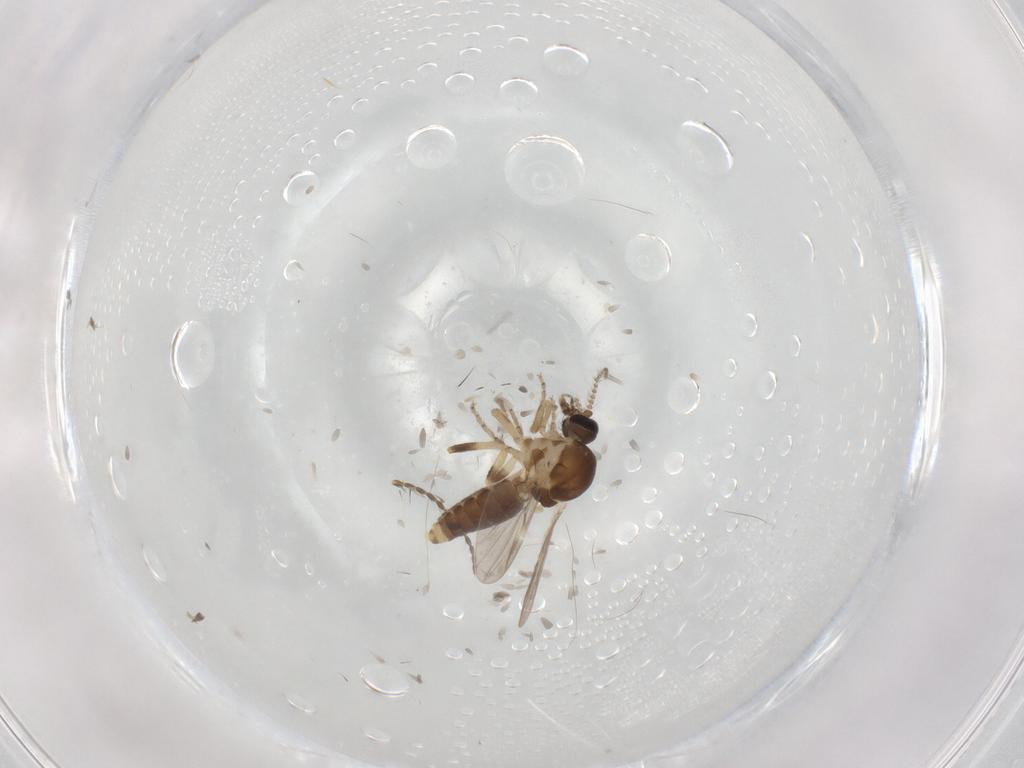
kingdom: Animalia
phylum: Arthropoda
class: Insecta
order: Diptera
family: Ceratopogonidae
